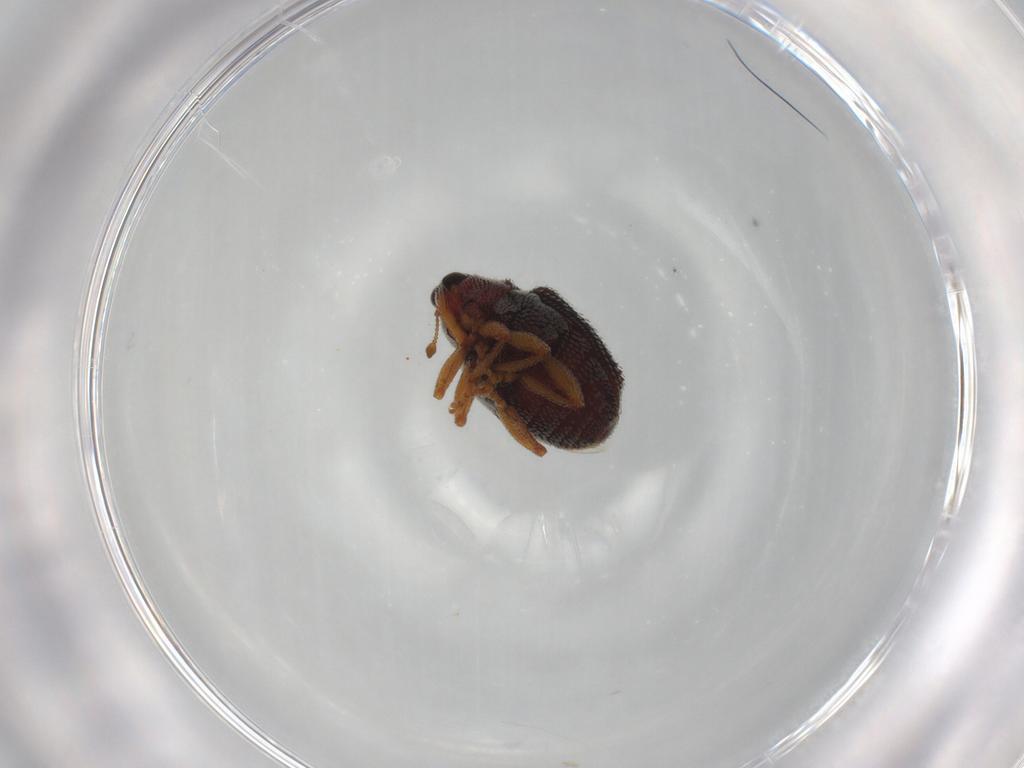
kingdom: Animalia
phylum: Arthropoda
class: Insecta
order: Coleoptera
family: Curculionidae
